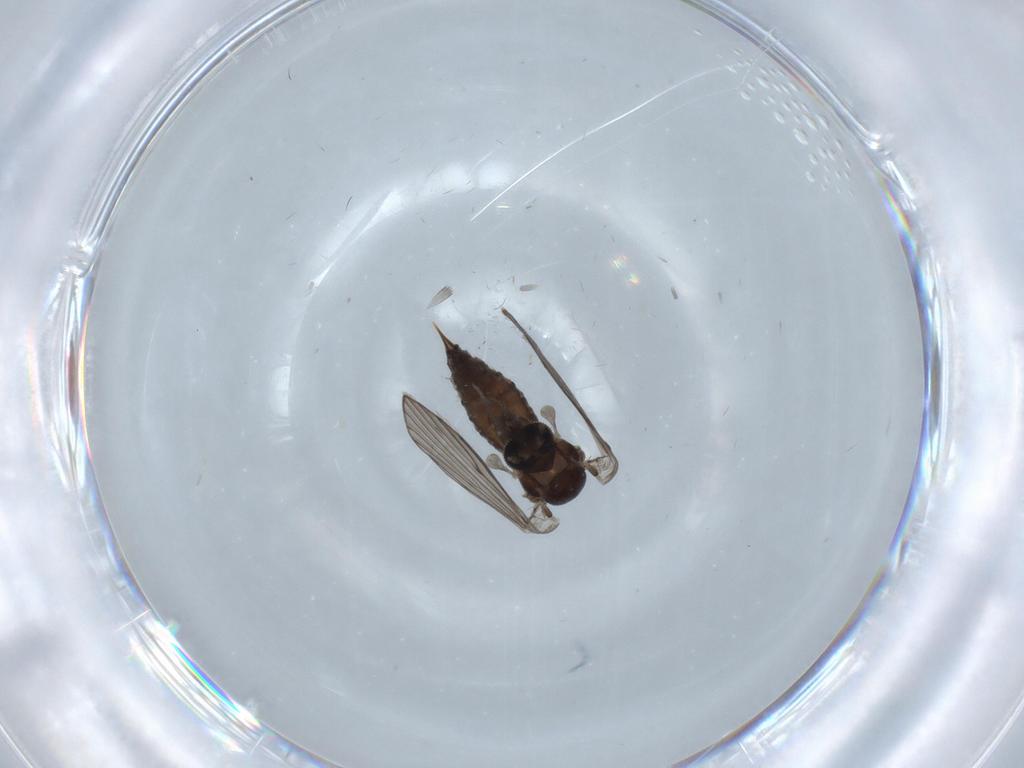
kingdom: Animalia
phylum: Arthropoda
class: Insecta
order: Diptera
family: Psychodidae
